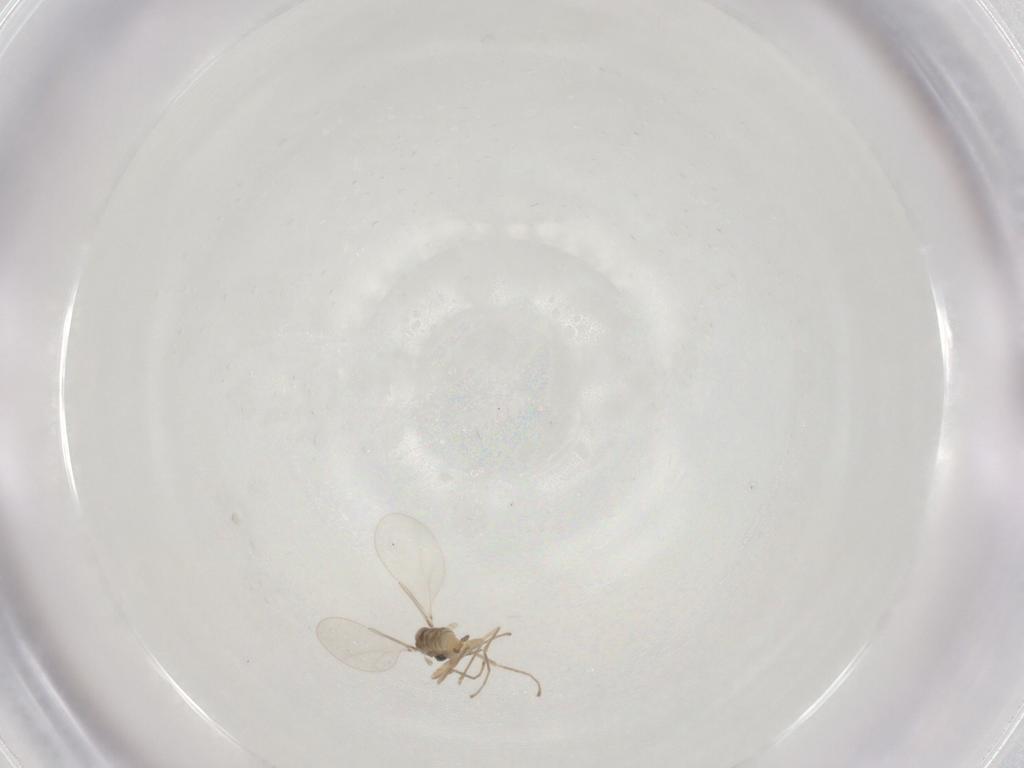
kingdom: Animalia
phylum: Arthropoda
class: Insecta
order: Diptera
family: Cecidomyiidae
